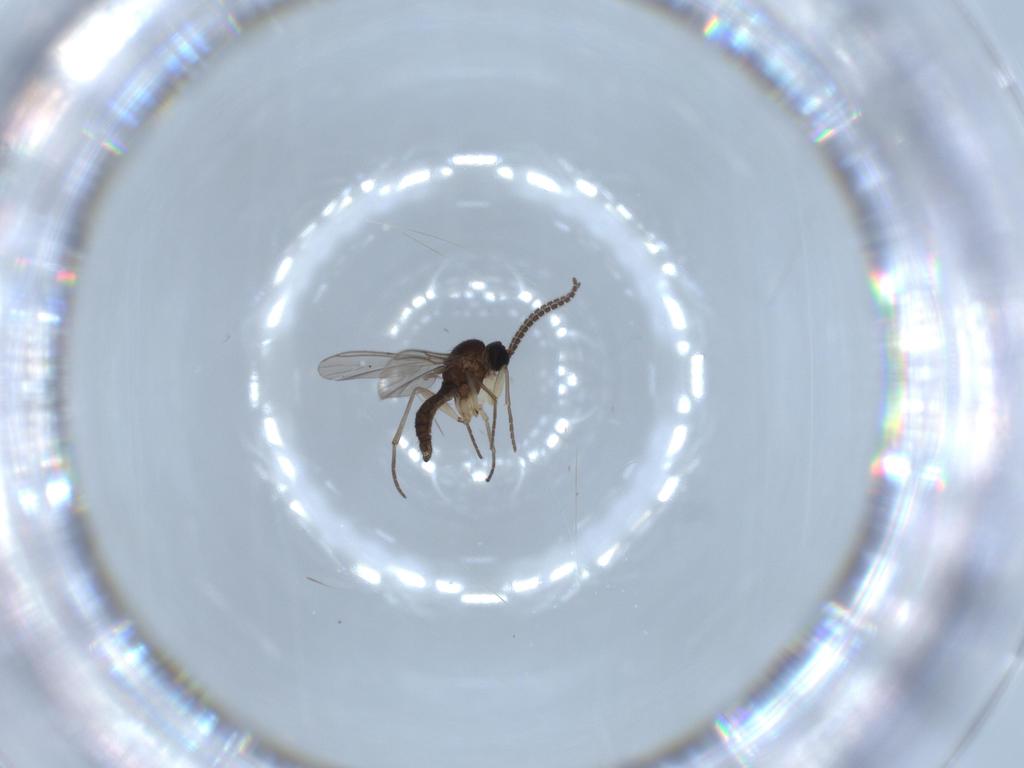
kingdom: Animalia
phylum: Arthropoda
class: Insecta
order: Diptera
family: Sciaridae
